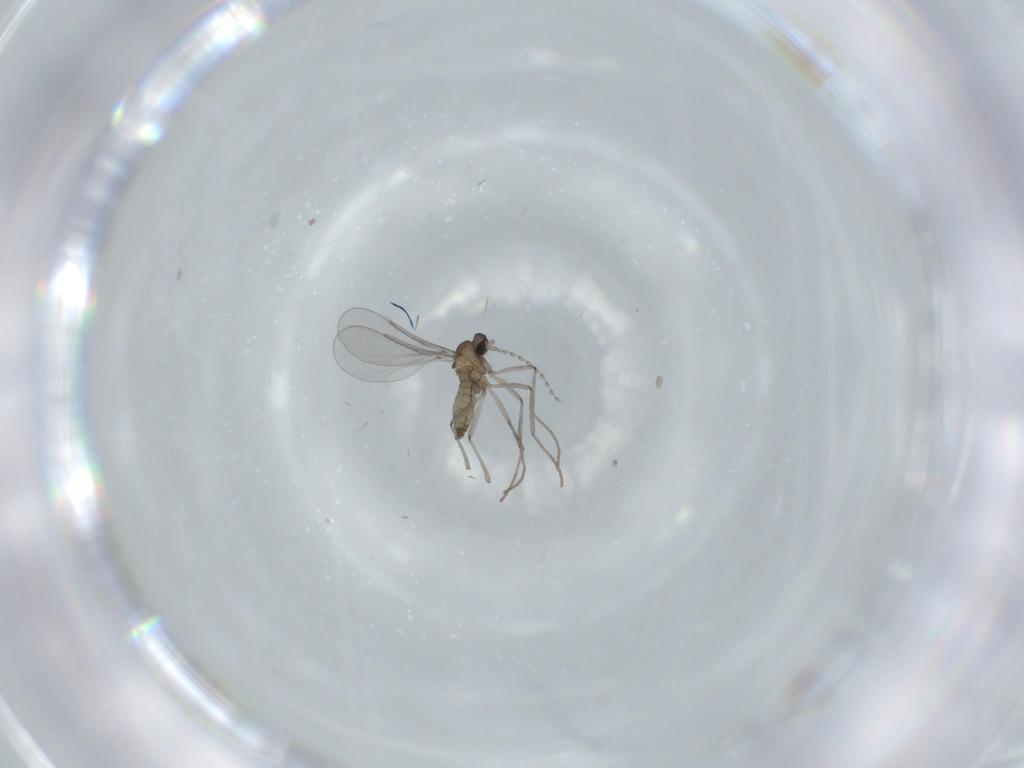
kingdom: Animalia
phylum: Arthropoda
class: Insecta
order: Diptera
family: Cecidomyiidae
